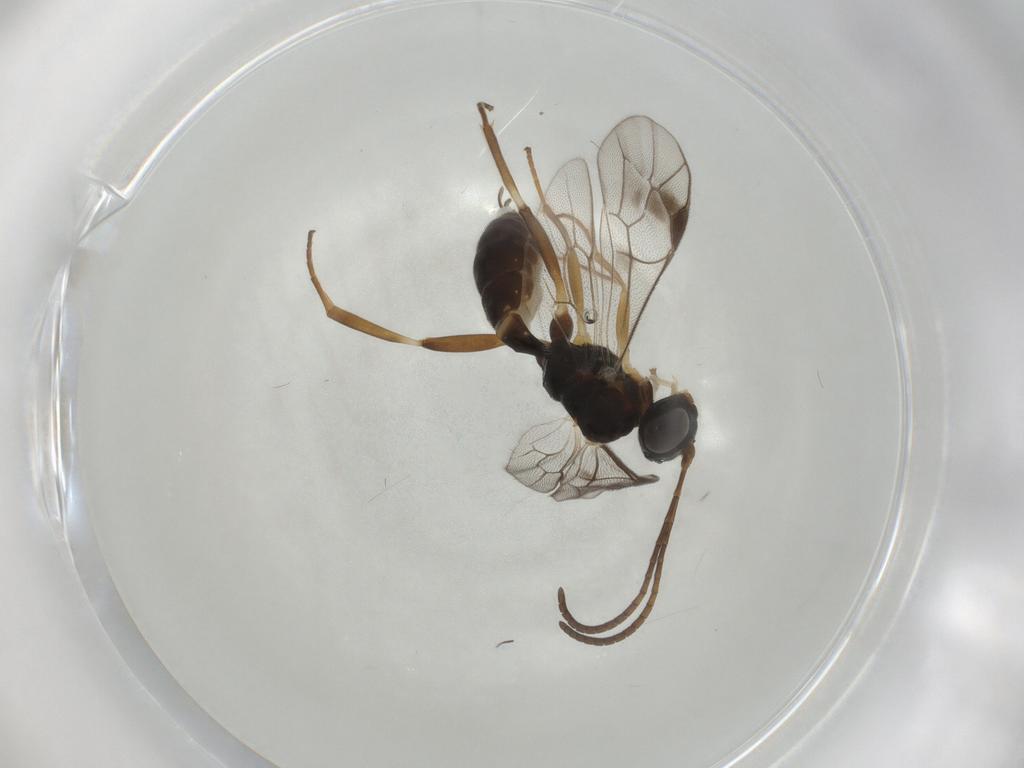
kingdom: Animalia
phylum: Arthropoda
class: Insecta
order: Hymenoptera
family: Ichneumonidae
